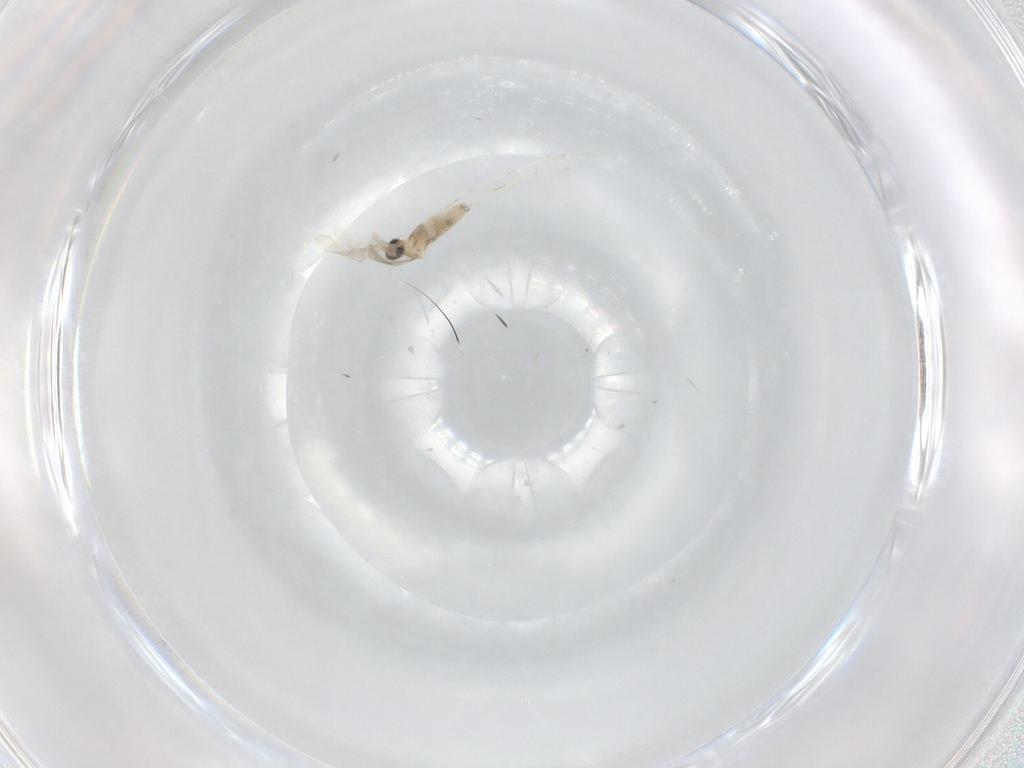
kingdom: Animalia
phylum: Arthropoda
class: Insecta
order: Diptera
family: Cecidomyiidae
